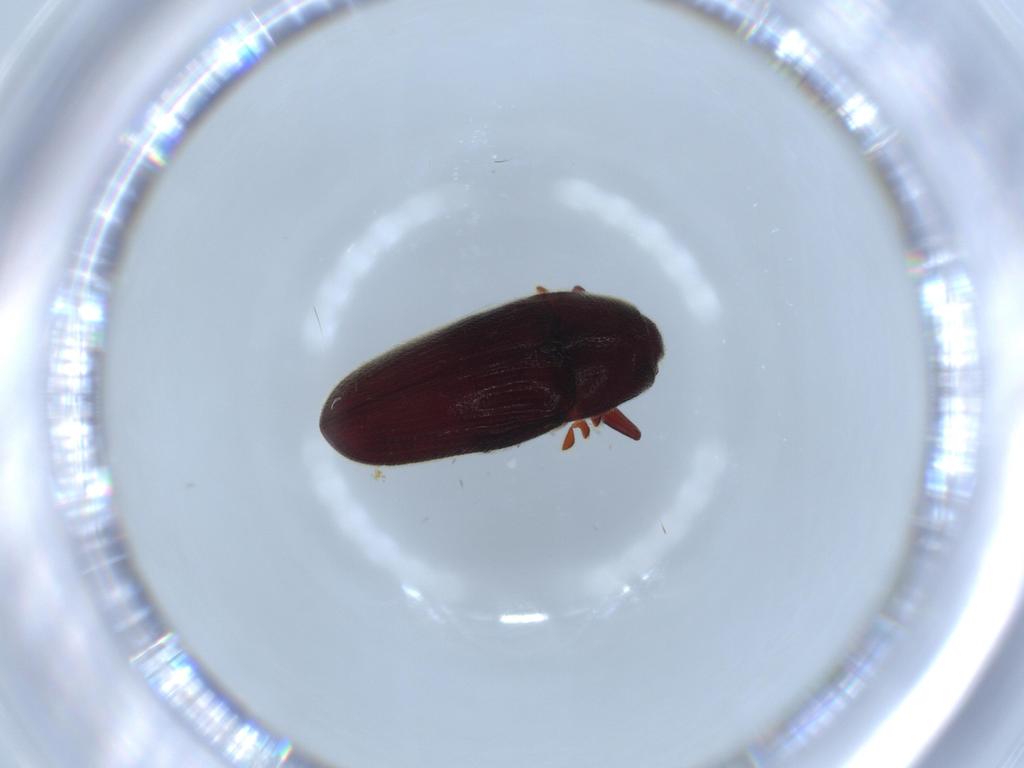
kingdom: Animalia
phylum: Arthropoda
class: Insecta
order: Coleoptera
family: Throscidae
